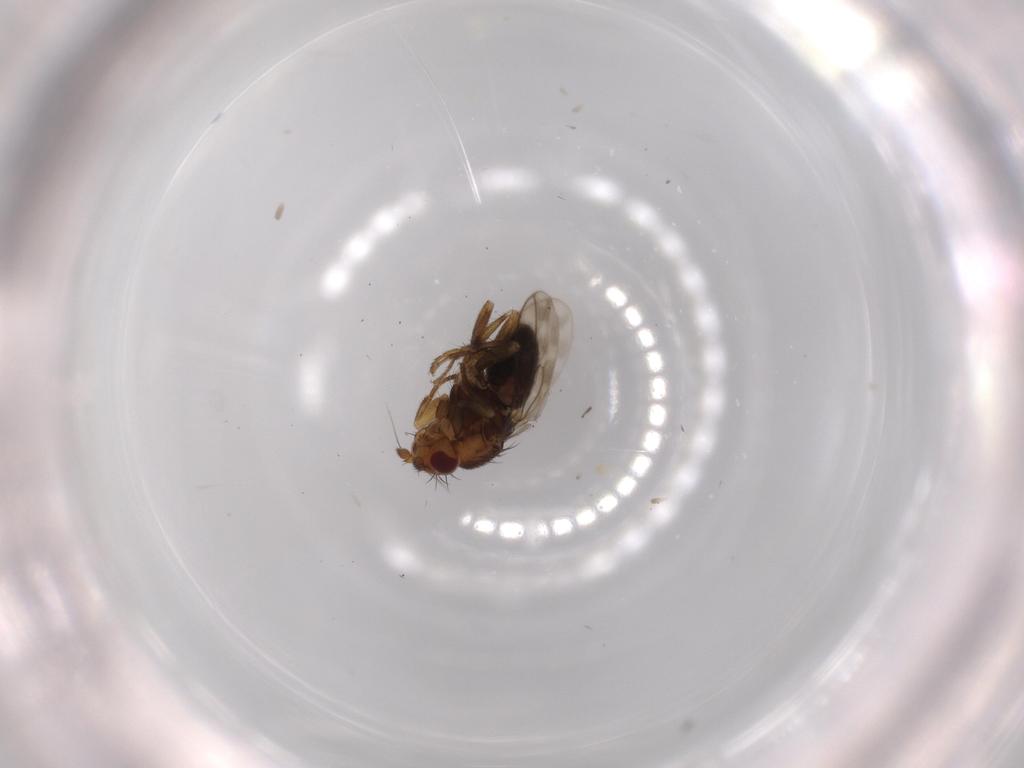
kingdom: Animalia
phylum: Arthropoda
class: Insecta
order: Diptera
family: Sphaeroceridae
